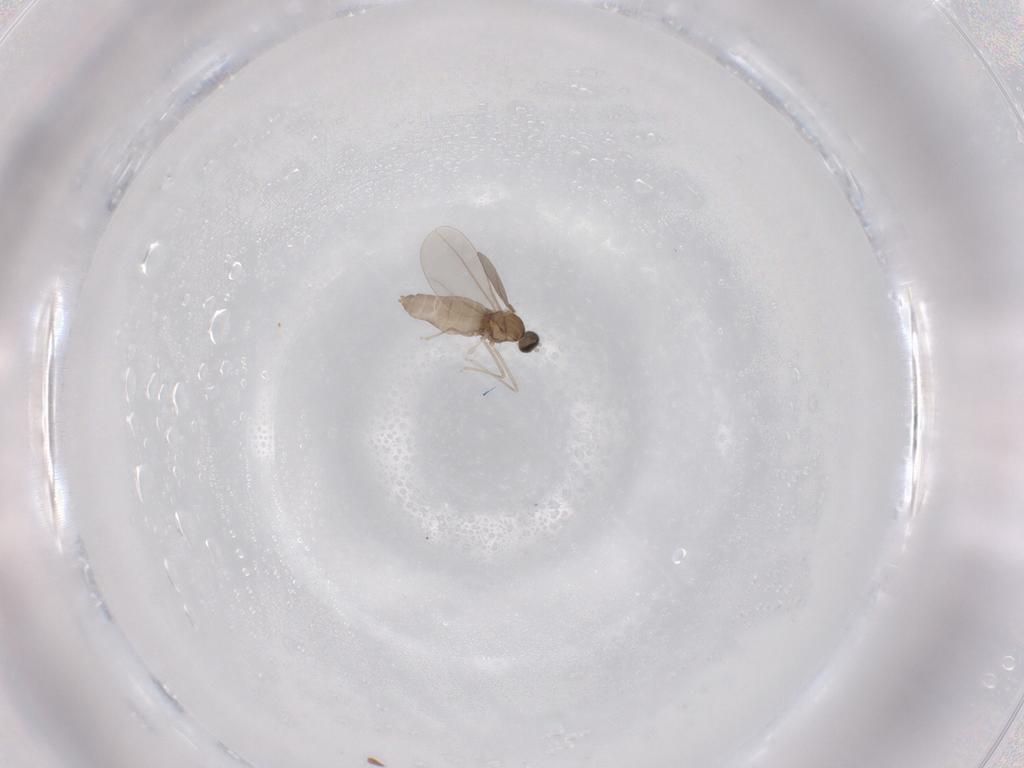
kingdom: Animalia
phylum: Arthropoda
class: Insecta
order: Diptera
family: Cecidomyiidae
